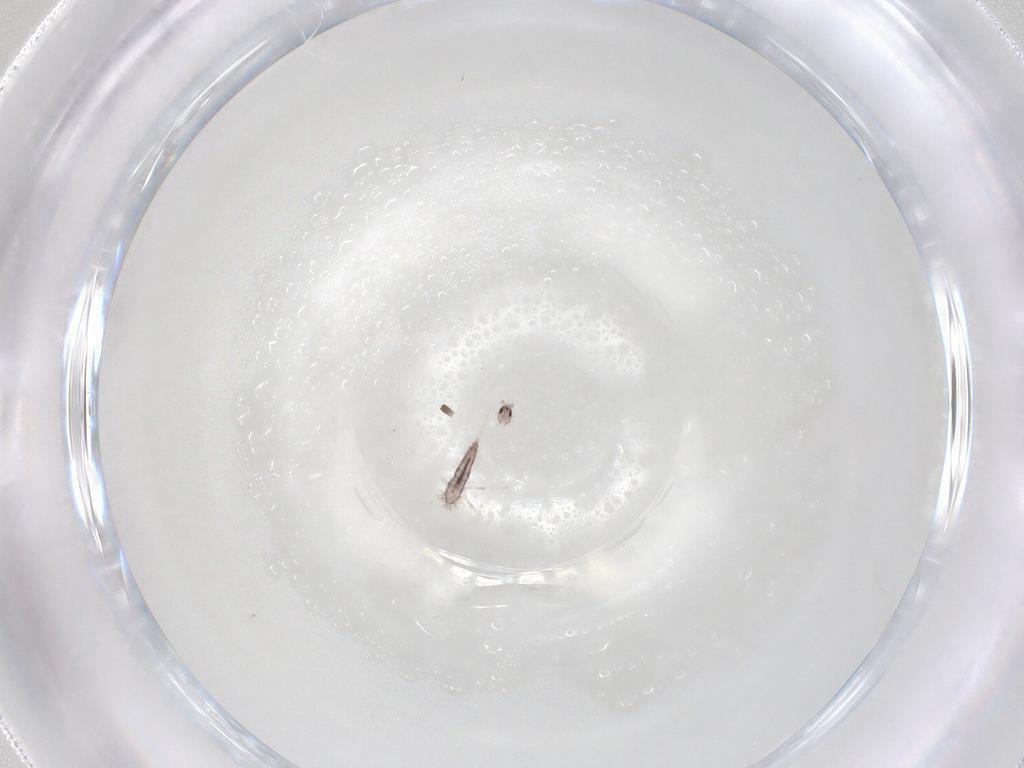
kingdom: Animalia
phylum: Arthropoda
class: Collembola
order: Poduromorpha
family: Hypogastruridae
